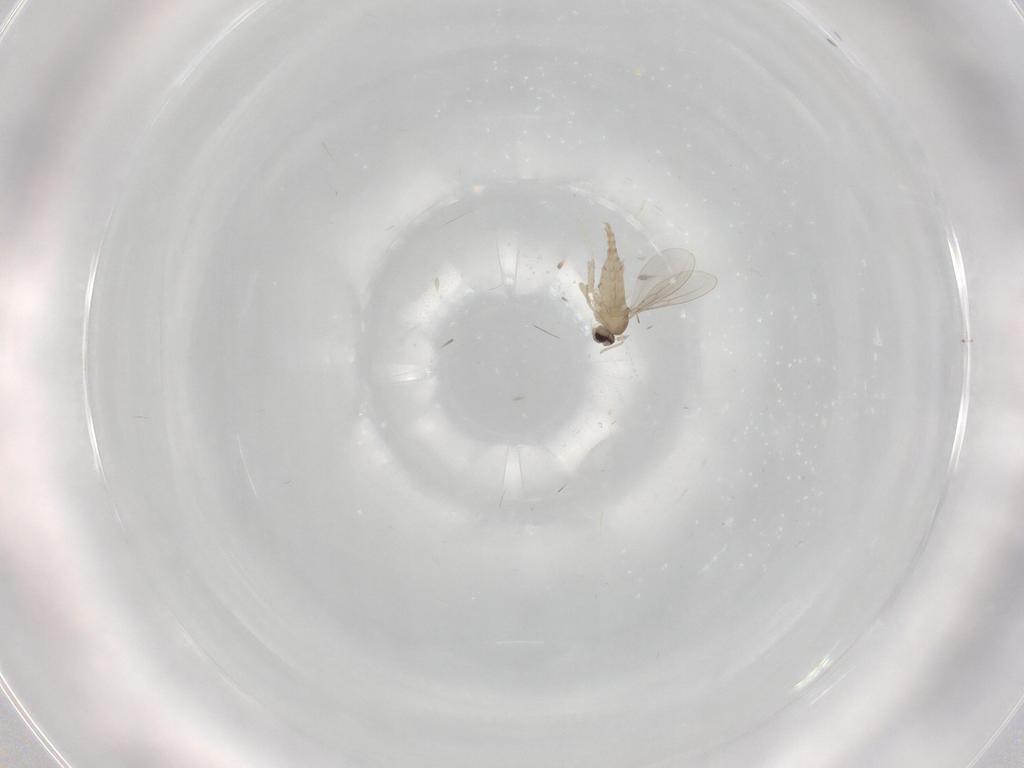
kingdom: Animalia
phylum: Arthropoda
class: Insecta
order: Diptera
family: Cecidomyiidae
